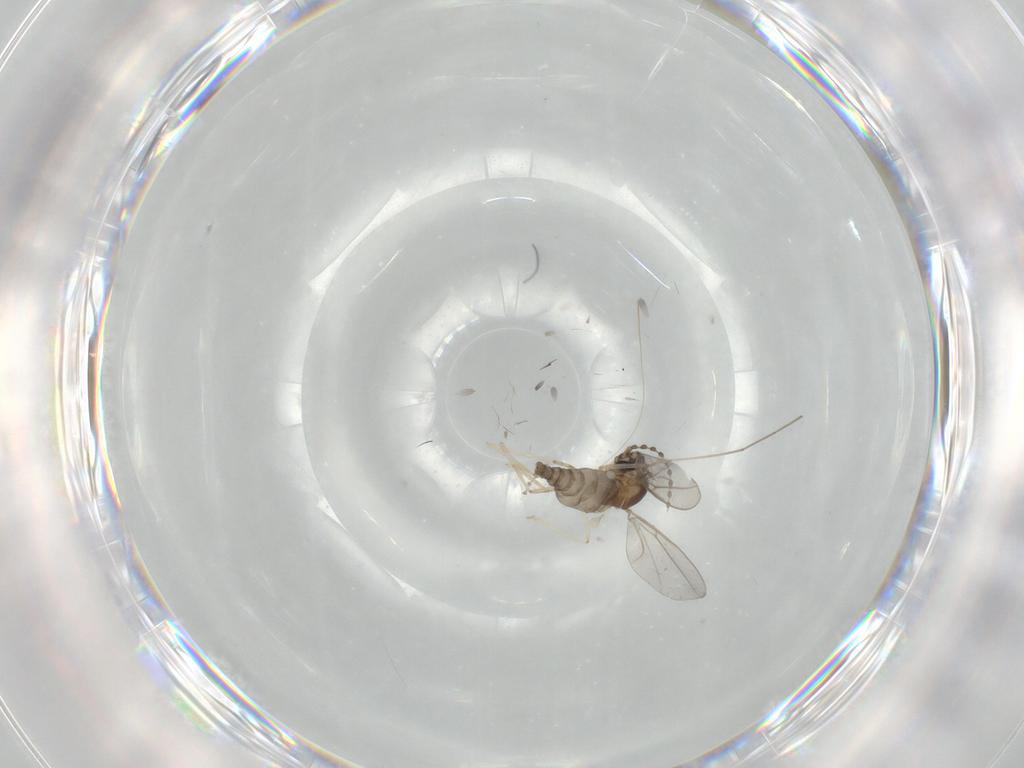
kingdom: Animalia
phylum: Arthropoda
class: Insecta
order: Diptera
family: Cecidomyiidae
